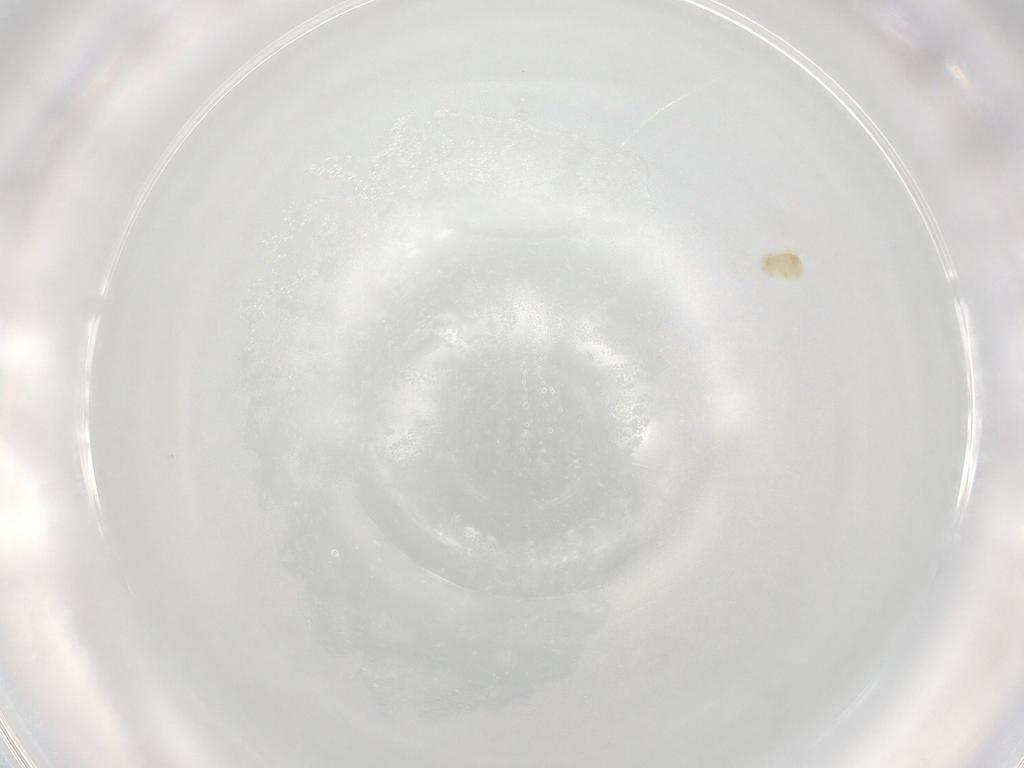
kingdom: Animalia
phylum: Arthropoda
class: Arachnida
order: Trombidiformes
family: Eupodidae
